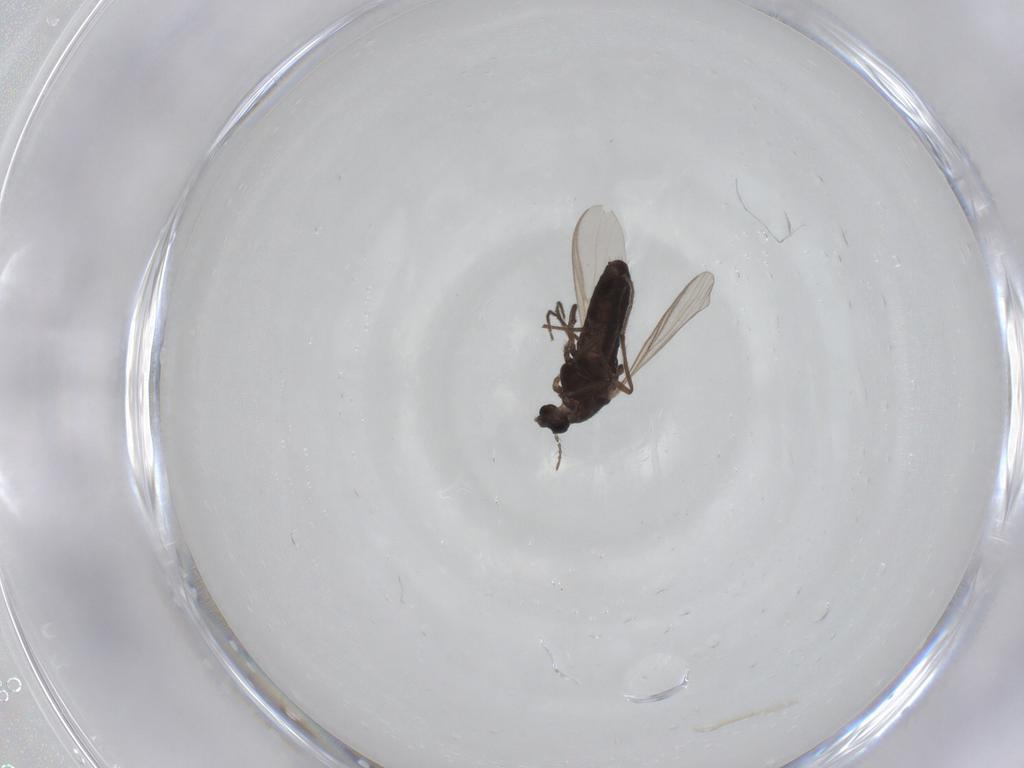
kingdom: Animalia
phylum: Arthropoda
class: Insecta
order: Diptera
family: Chironomidae
